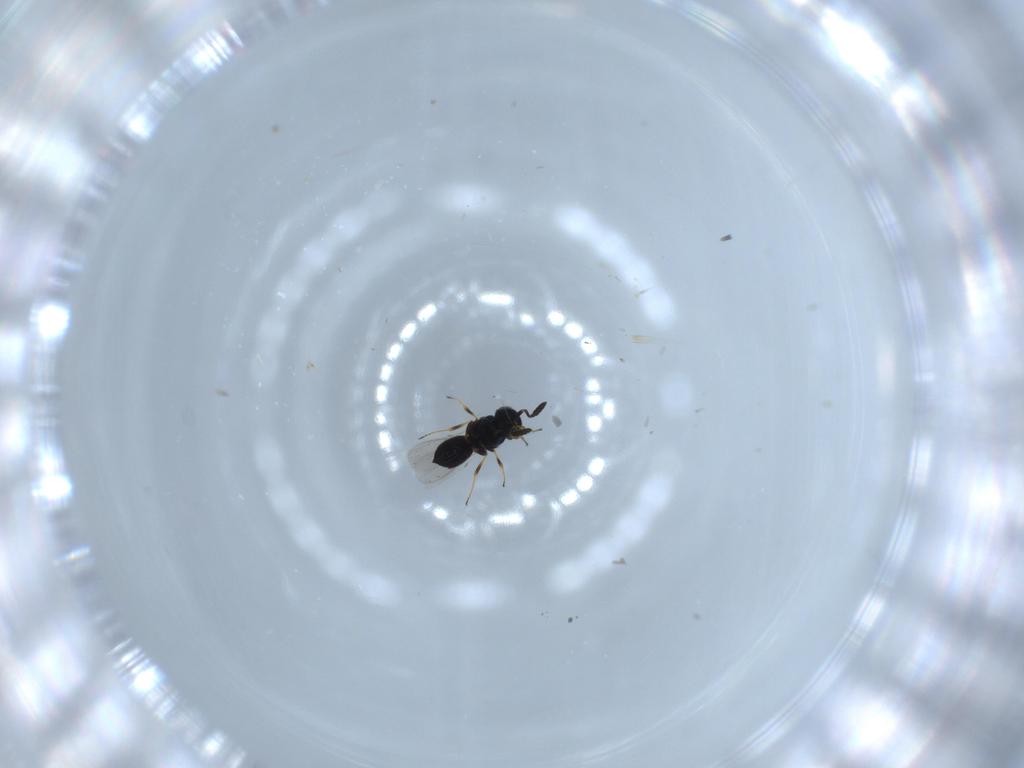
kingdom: Animalia
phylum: Arthropoda
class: Insecta
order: Hymenoptera
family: Scelionidae
